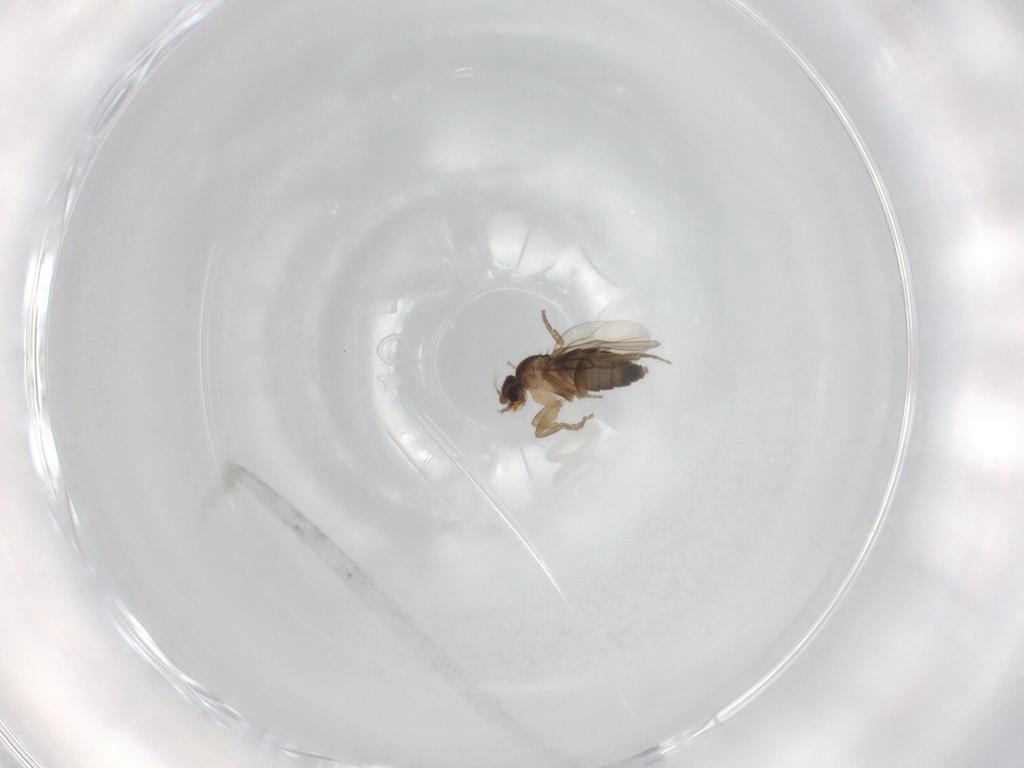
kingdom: Animalia
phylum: Arthropoda
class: Insecta
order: Diptera
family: Phoridae
